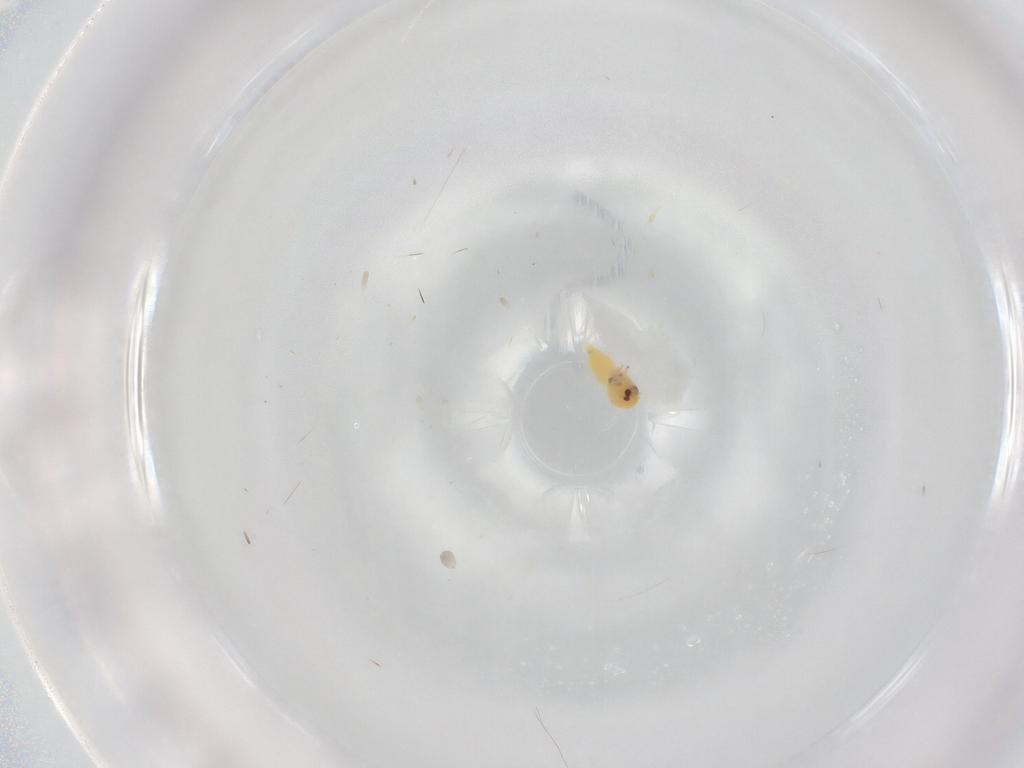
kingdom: Animalia
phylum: Arthropoda
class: Insecta
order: Hemiptera
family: Aleyrodidae
